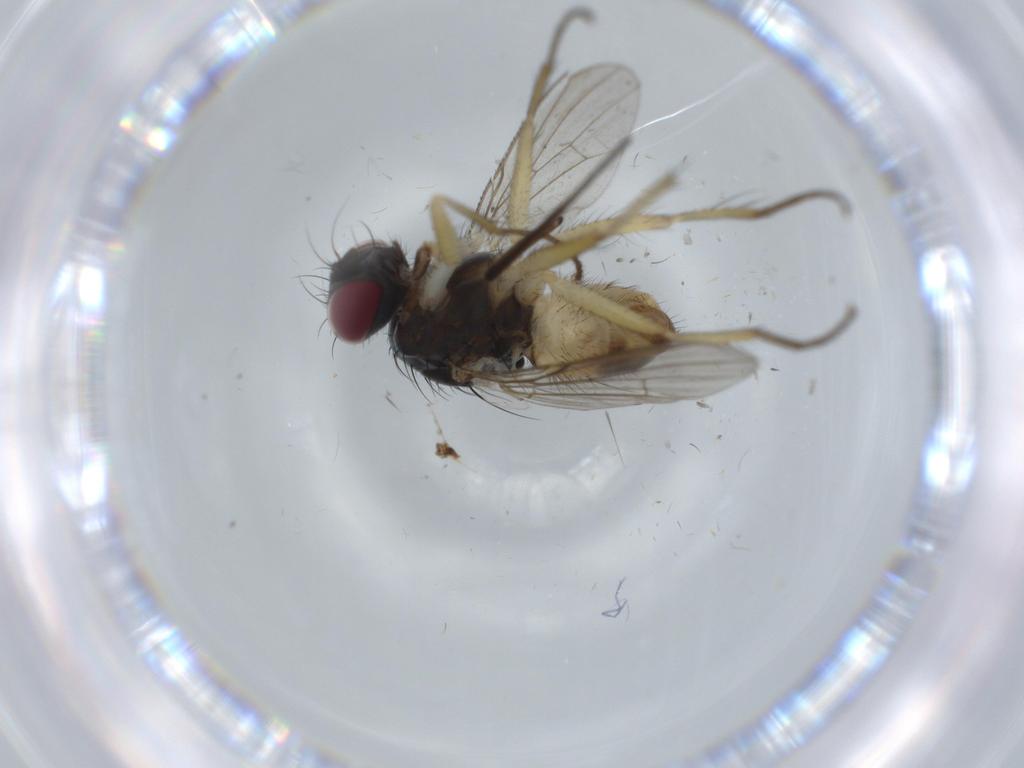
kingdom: Animalia
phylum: Arthropoda
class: Insecta
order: Diptera
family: Muscidae
